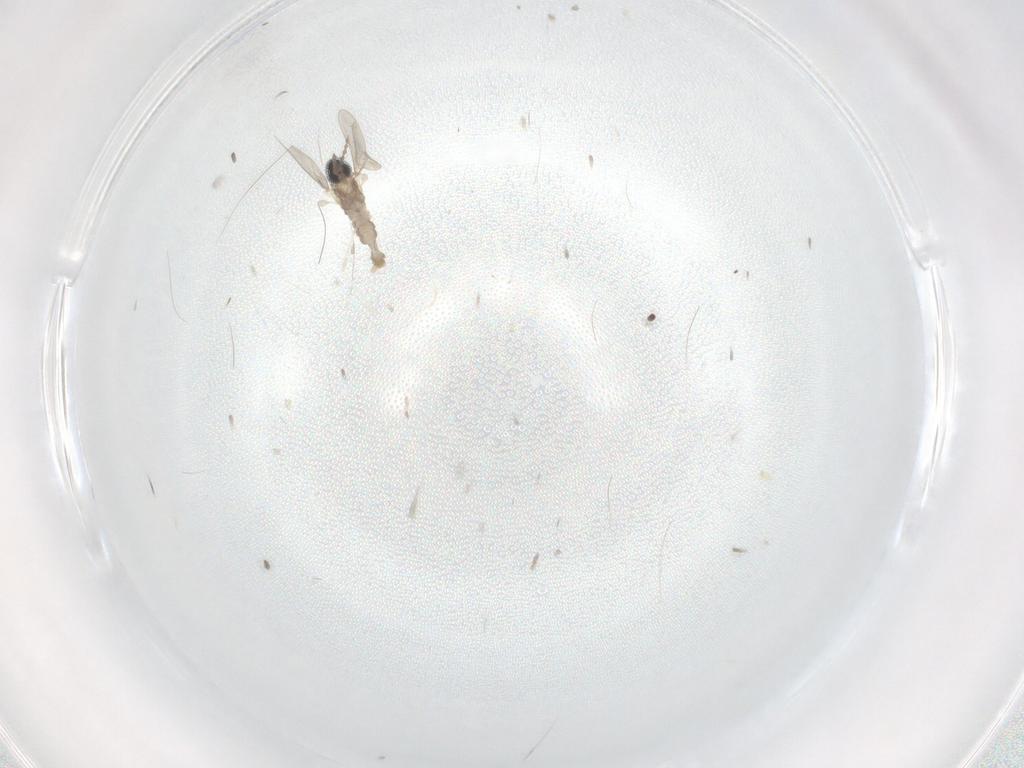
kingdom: Animalia
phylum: Arthropoda
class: Insecta
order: Diptera
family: Cecidomyiidae
